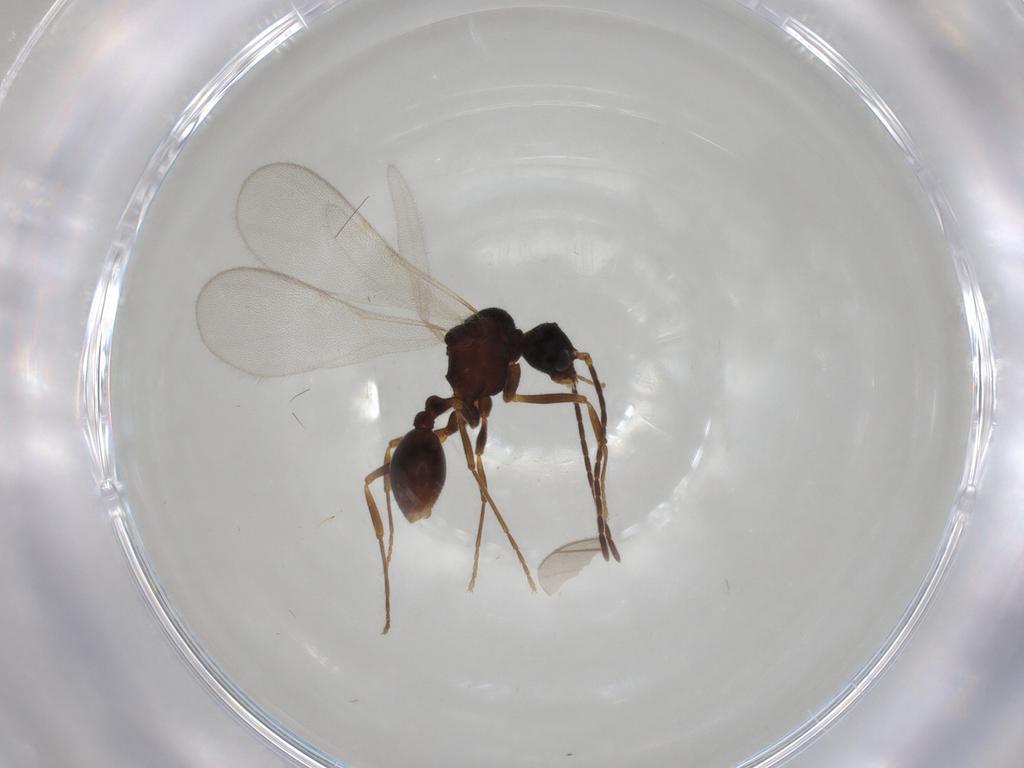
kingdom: Animalia
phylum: Arthropoda
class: Insecta
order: Hymenoptera
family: Formicidae
